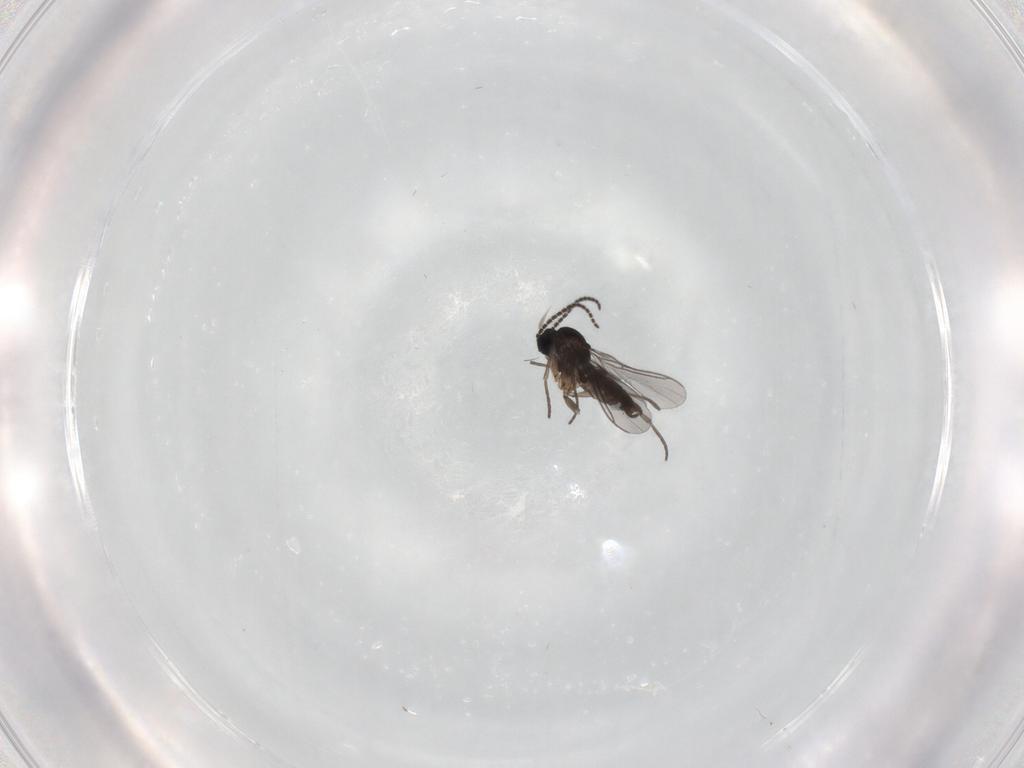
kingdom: Animalia
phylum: Arthropoda
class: Insecta
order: Diptera
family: Sciaridae
